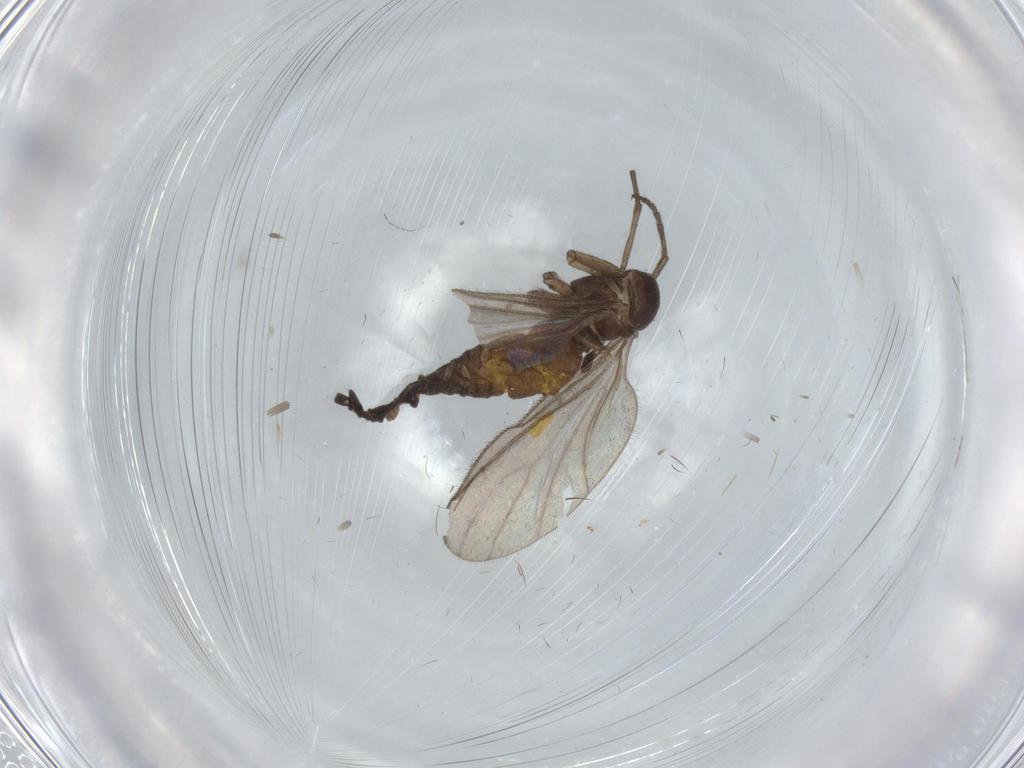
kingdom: Animalia
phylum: Arthropoda
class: Insecta
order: Diptera
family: Sciaridae
